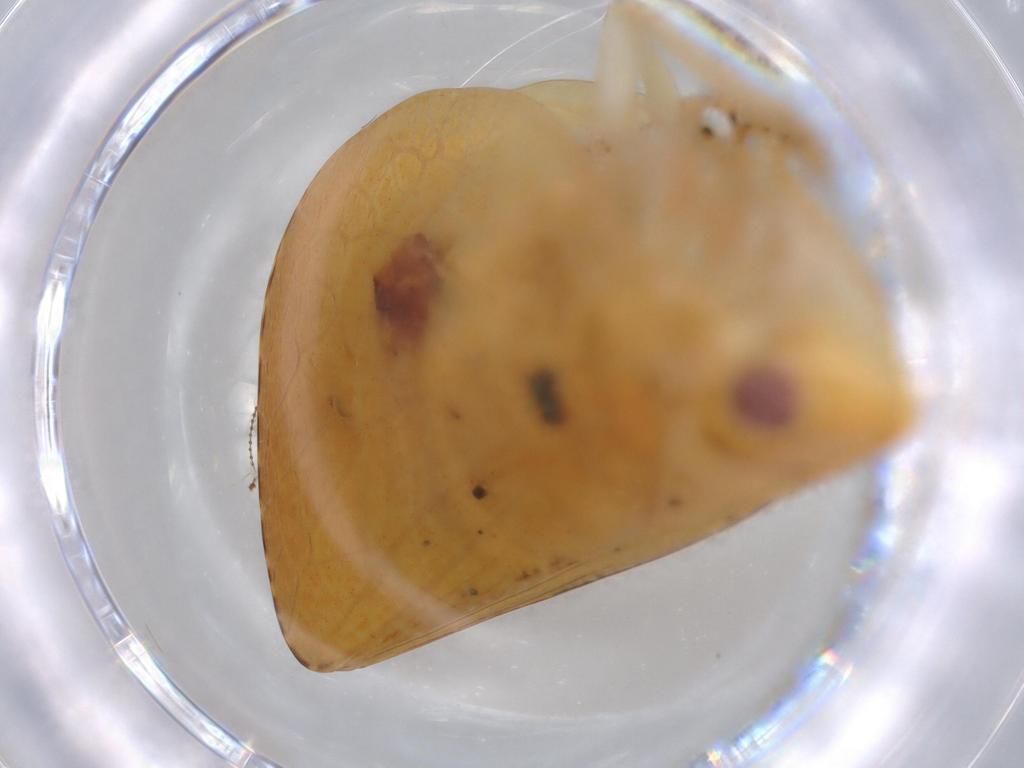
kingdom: Animalia
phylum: Arthropoda
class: Insecta
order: Hemiptera
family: Acanaloniidae
